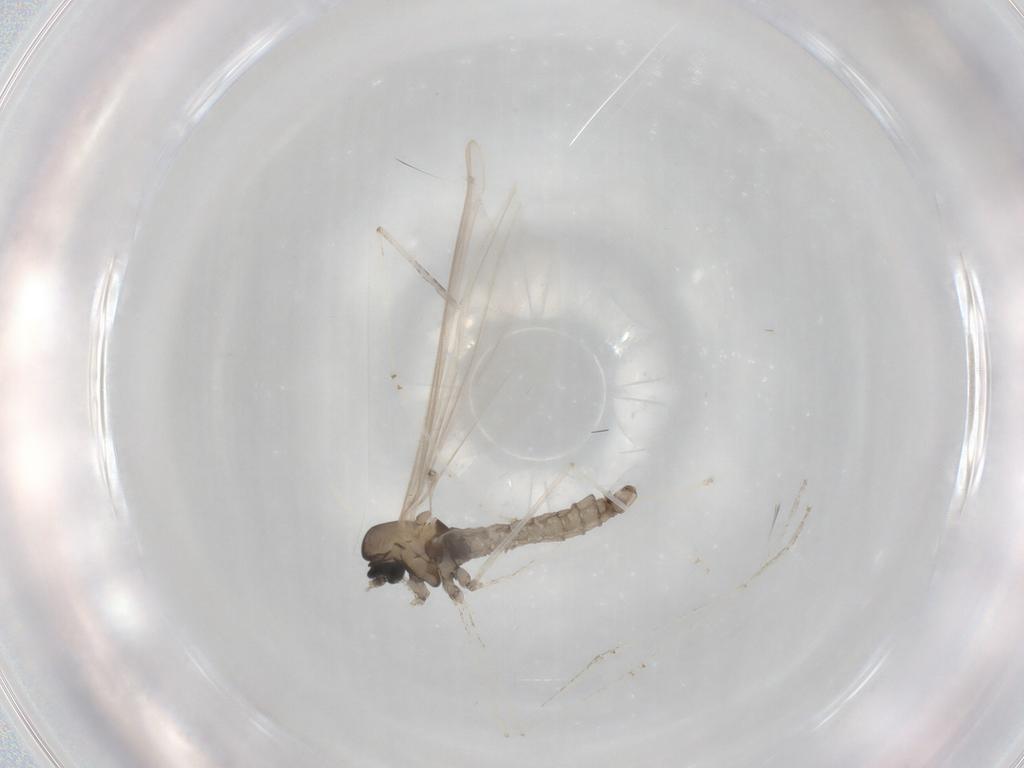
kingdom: Animalia
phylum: Arthropoda
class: Insecta
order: Diptera
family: Cecidomyiidae
